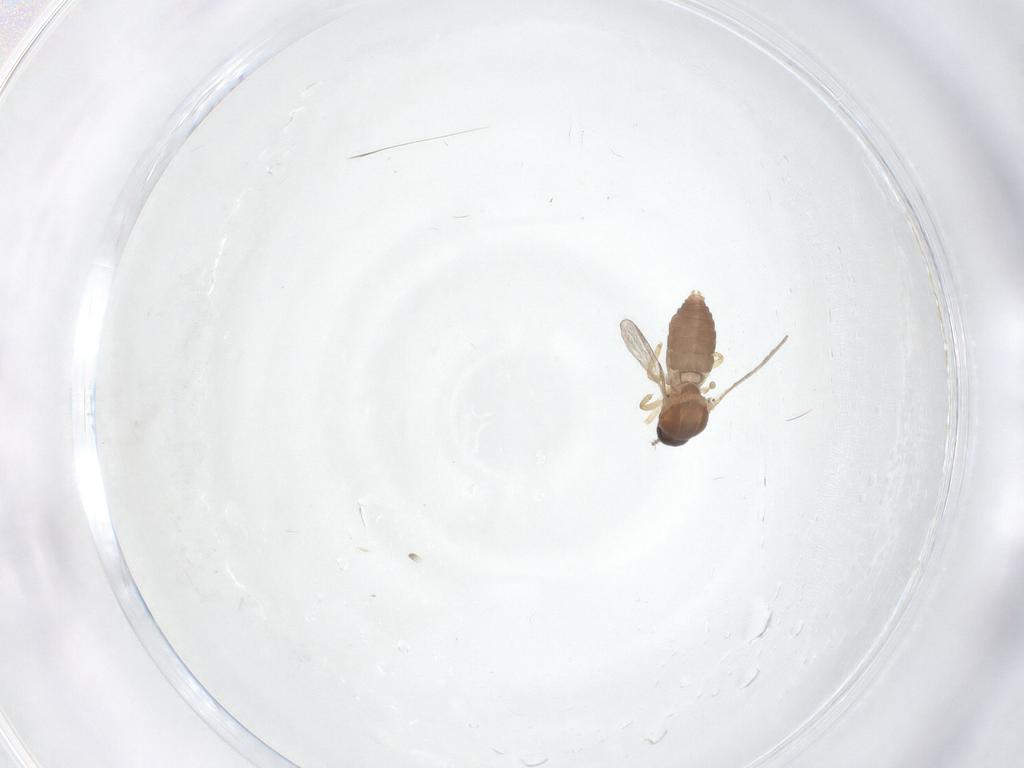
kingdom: Animalia
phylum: Arthropoda
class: Insecta
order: Diptera
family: Ceratopogonidae
